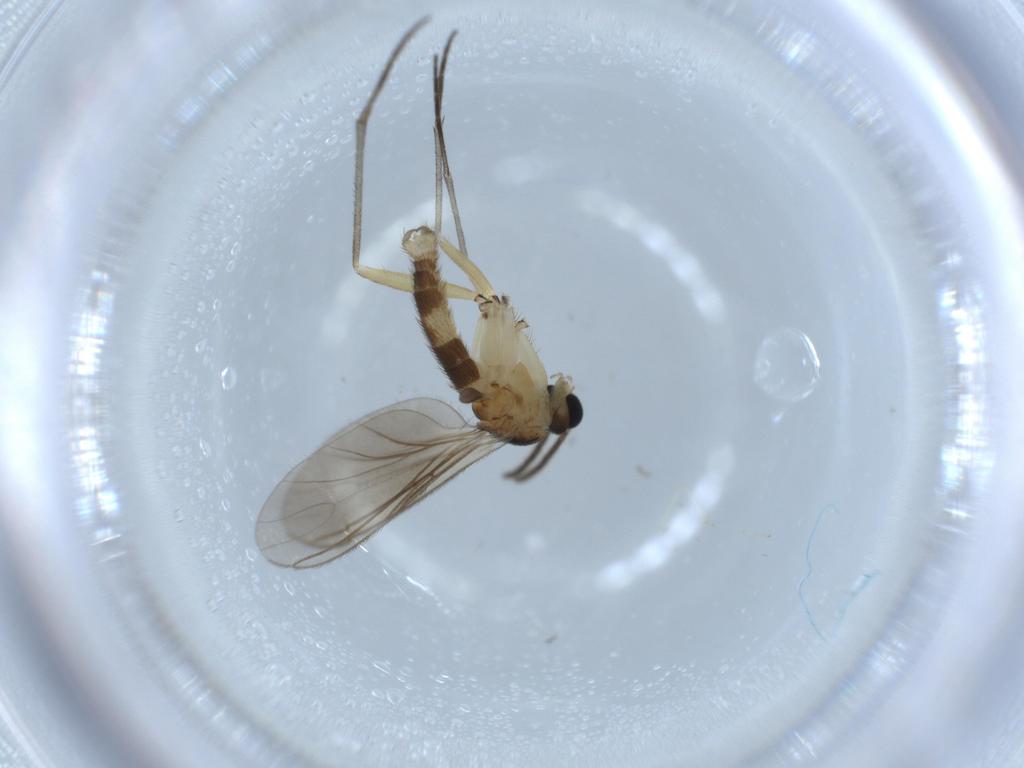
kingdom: Animalia
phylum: Arthropoda
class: Insecta
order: Diptera
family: Sciaridae
